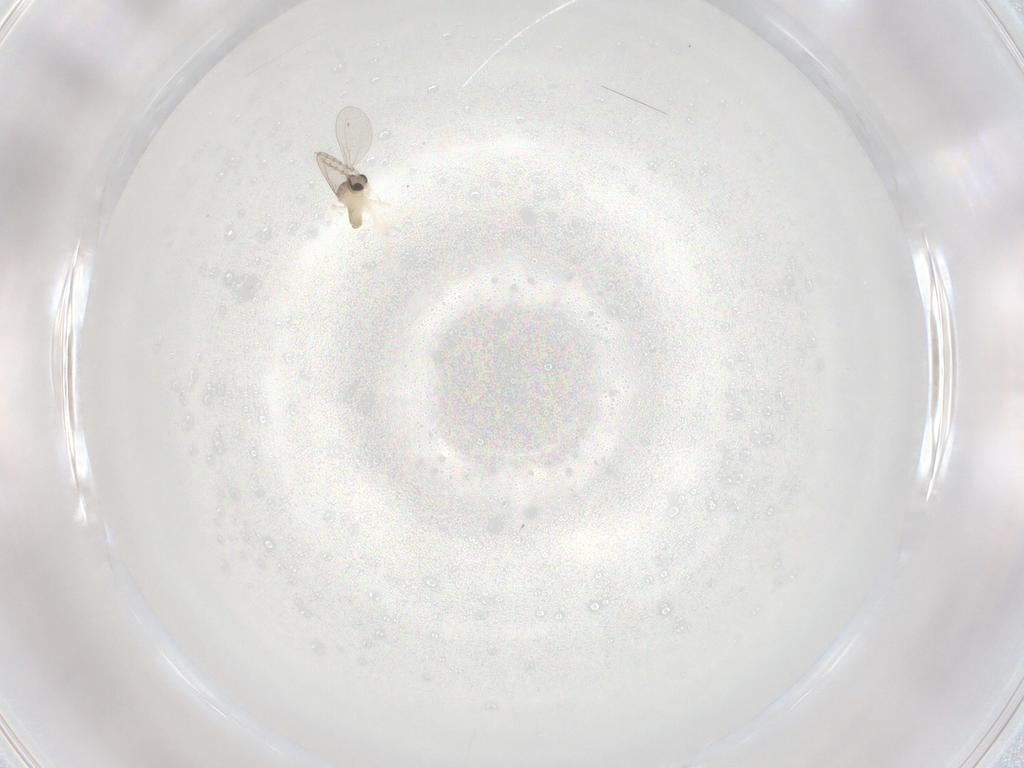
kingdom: Animalia
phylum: Arthropoda
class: Insecta
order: Diptera
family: Cecidomyiidae
